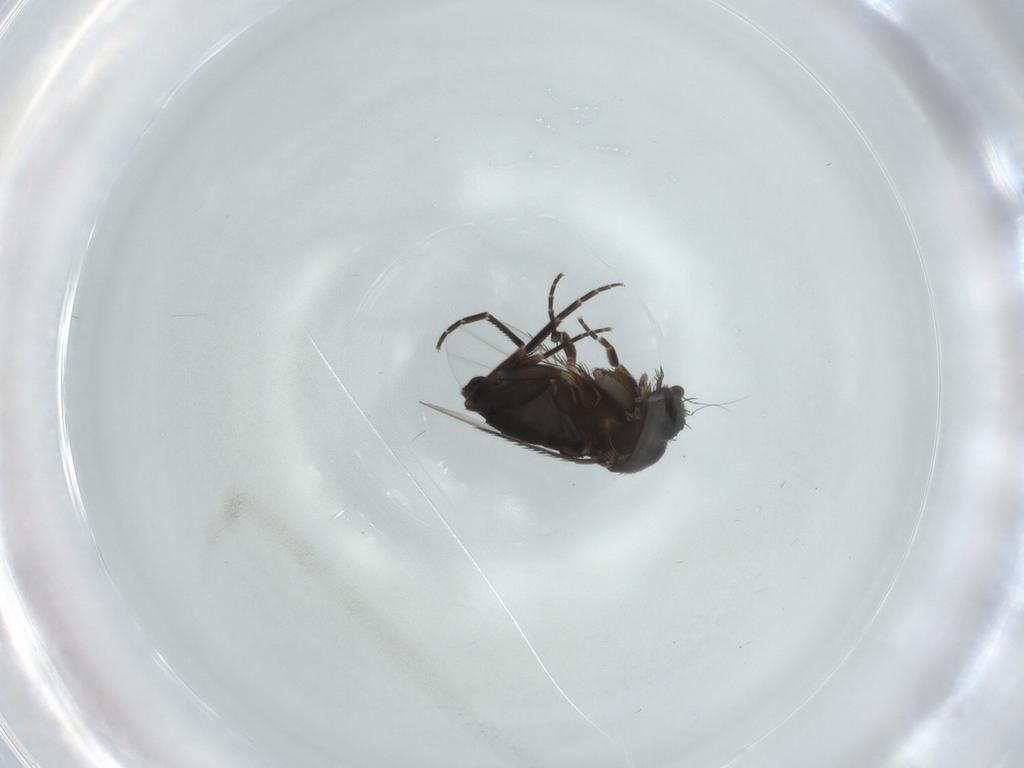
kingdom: Animalia
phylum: Arthropoda
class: Insecta
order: Diptera
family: Phoridae
